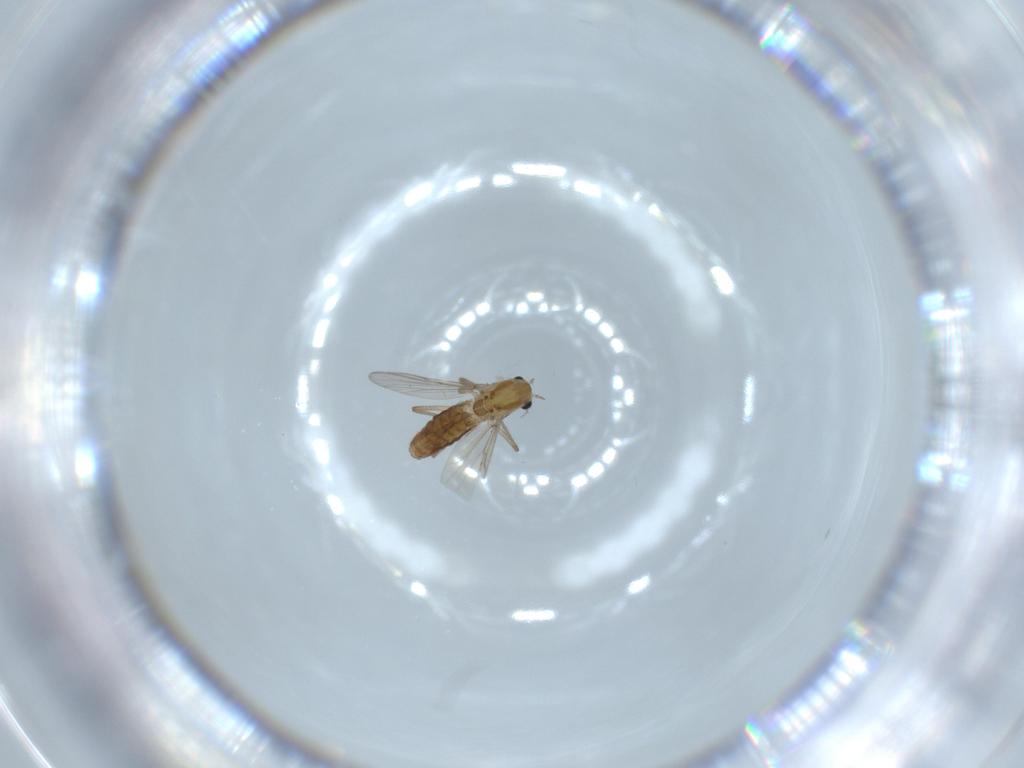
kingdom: Animalia
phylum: Arthropoda
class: Insecta
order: Diptera
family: Chironomidae
